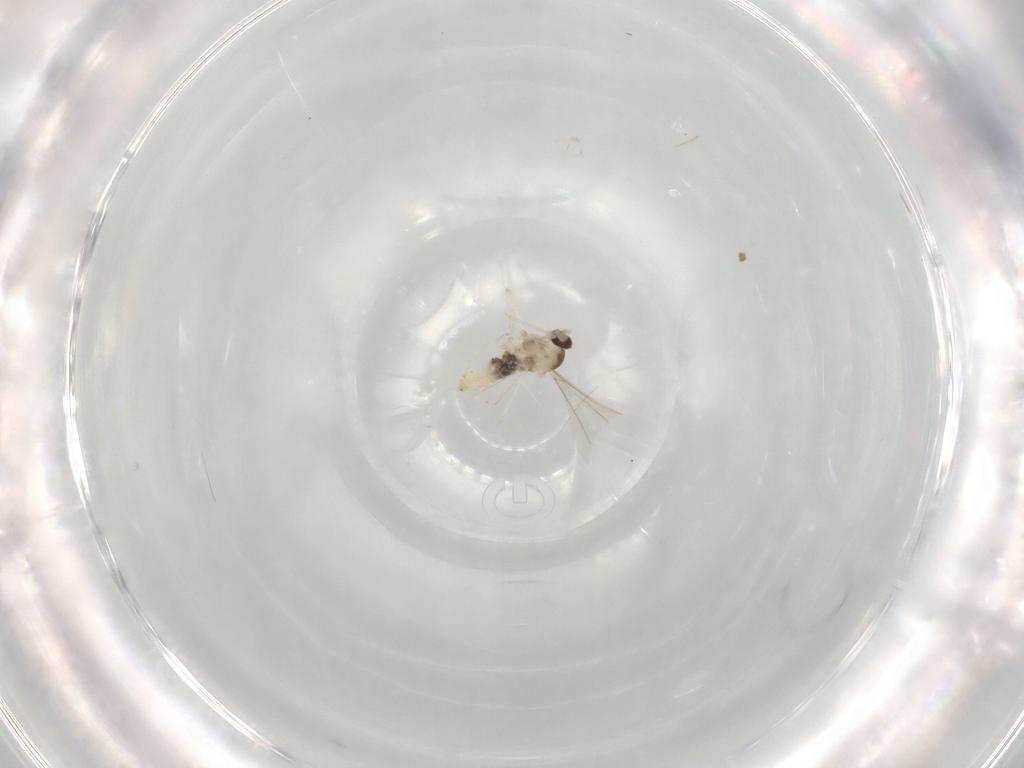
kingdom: Animalia
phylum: Arthropoda
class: Insecta
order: Diptera
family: Cecidomyiidae
